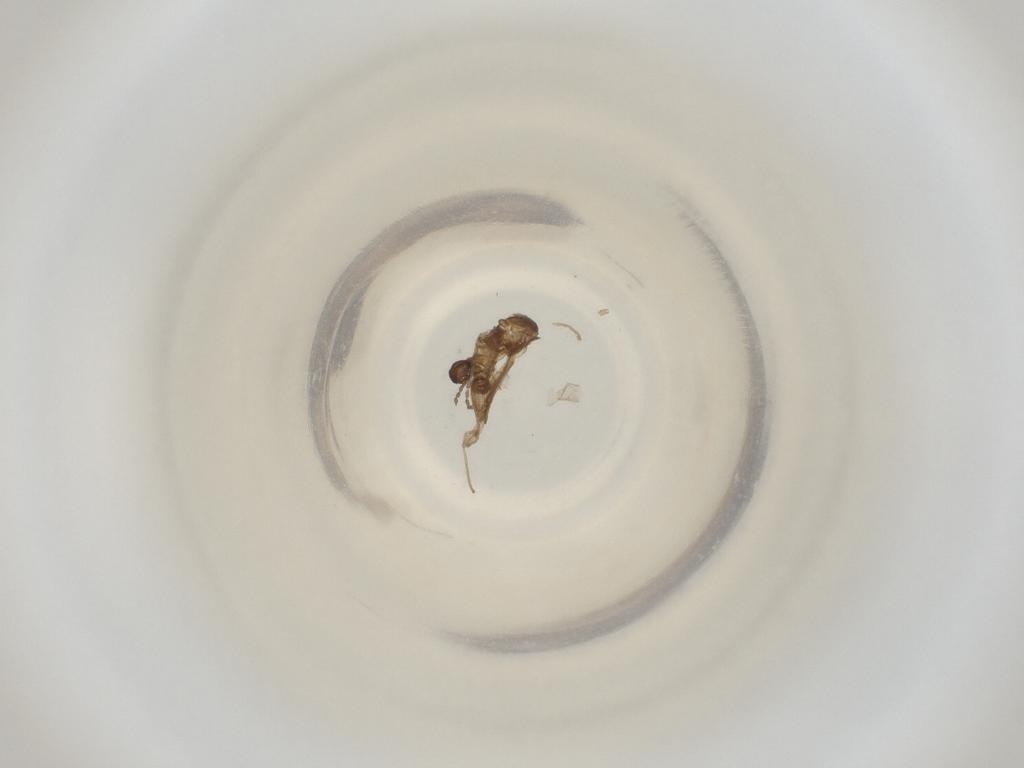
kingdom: Animalia
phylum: Arthropoda
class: Insecta
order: Diptera
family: Cecidomyiidae
